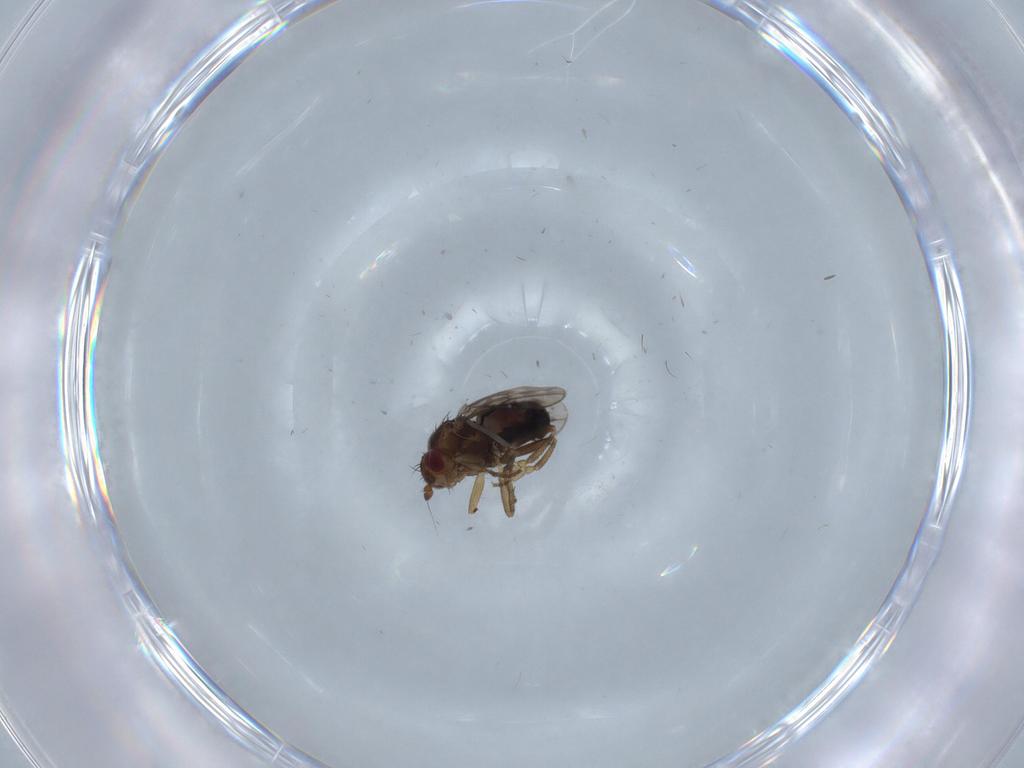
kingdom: Animalia
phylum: Arthropoda
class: Insecta
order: Diptera
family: Sphaeroceridae
